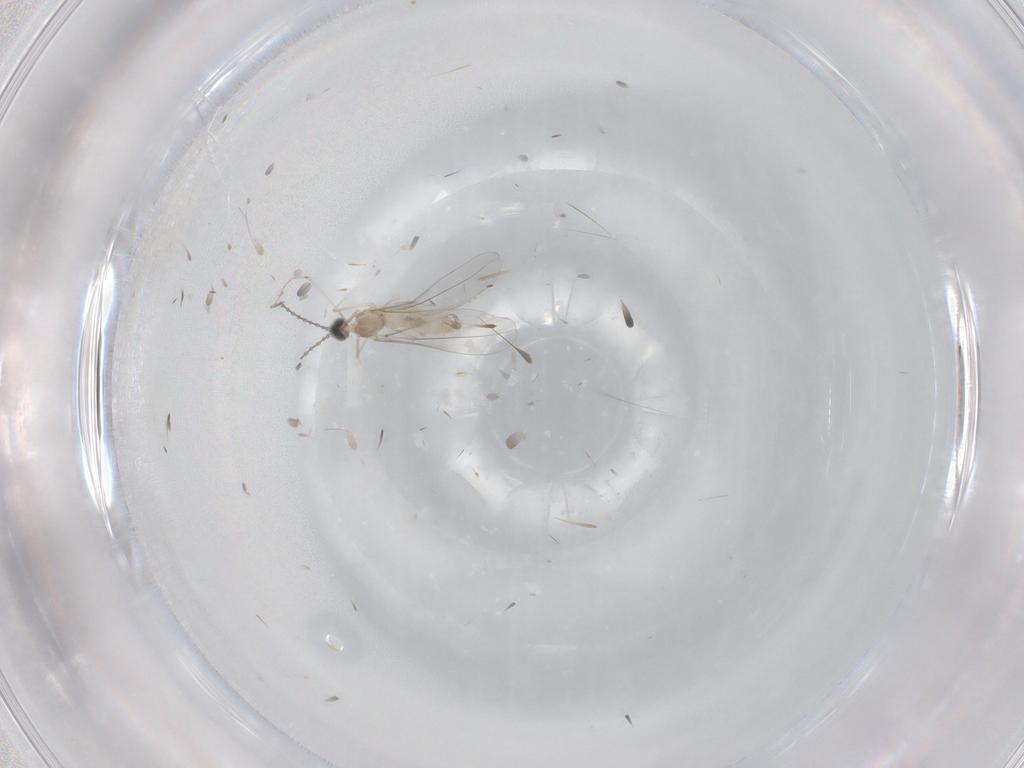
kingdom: Animalia
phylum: Arthropoda
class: Insecta
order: Diptera
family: Cecidomyiidae
